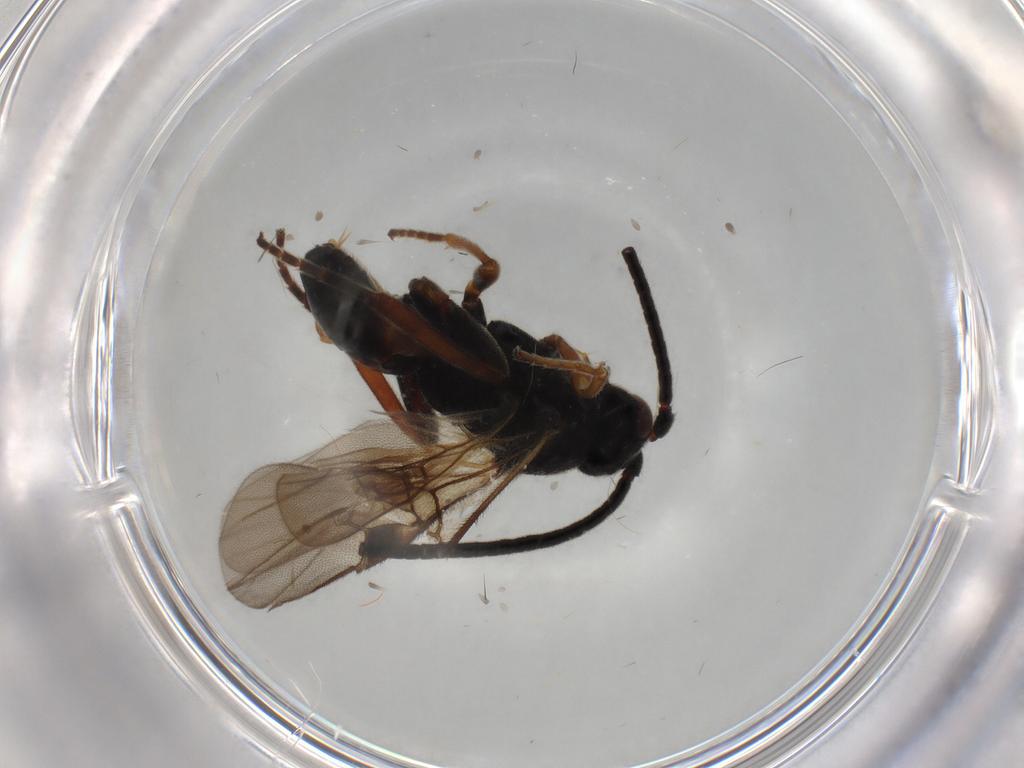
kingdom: Animalia
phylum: Arthropoda
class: Insecta
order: Hymenoptera
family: Braconidae
